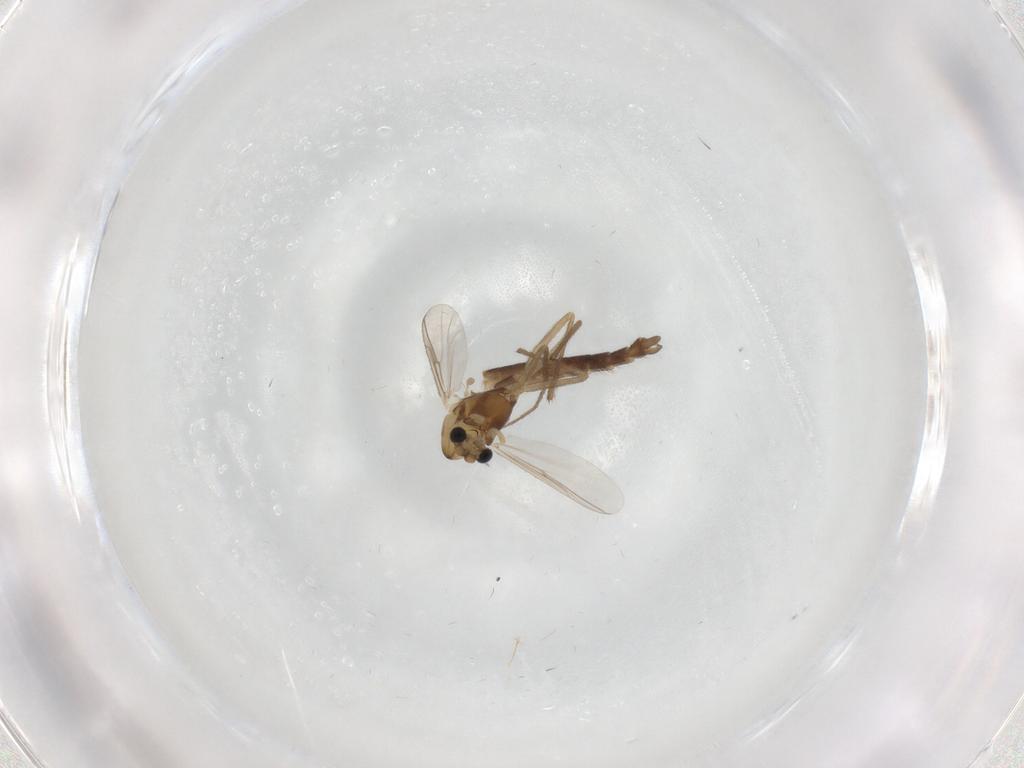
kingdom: Animalia
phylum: Arthropoda
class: Insecta
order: Diptera
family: Chironomidae
